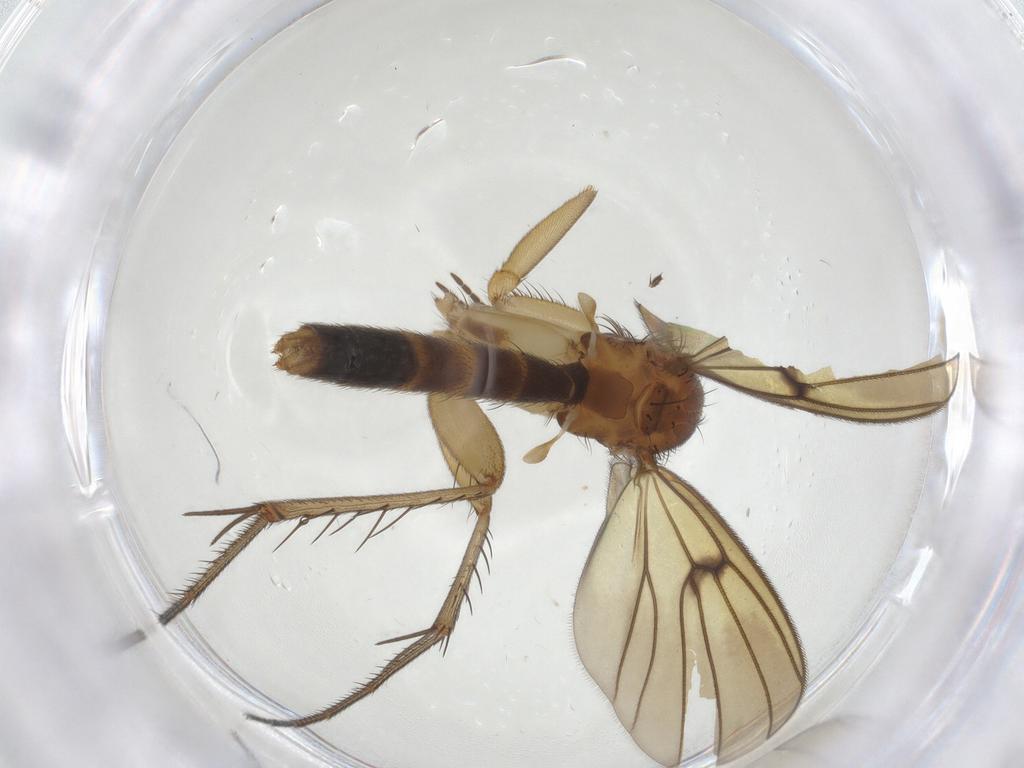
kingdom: Animalia
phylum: Arthropoda
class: Insecta
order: Diptera
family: Mycetophilidae
